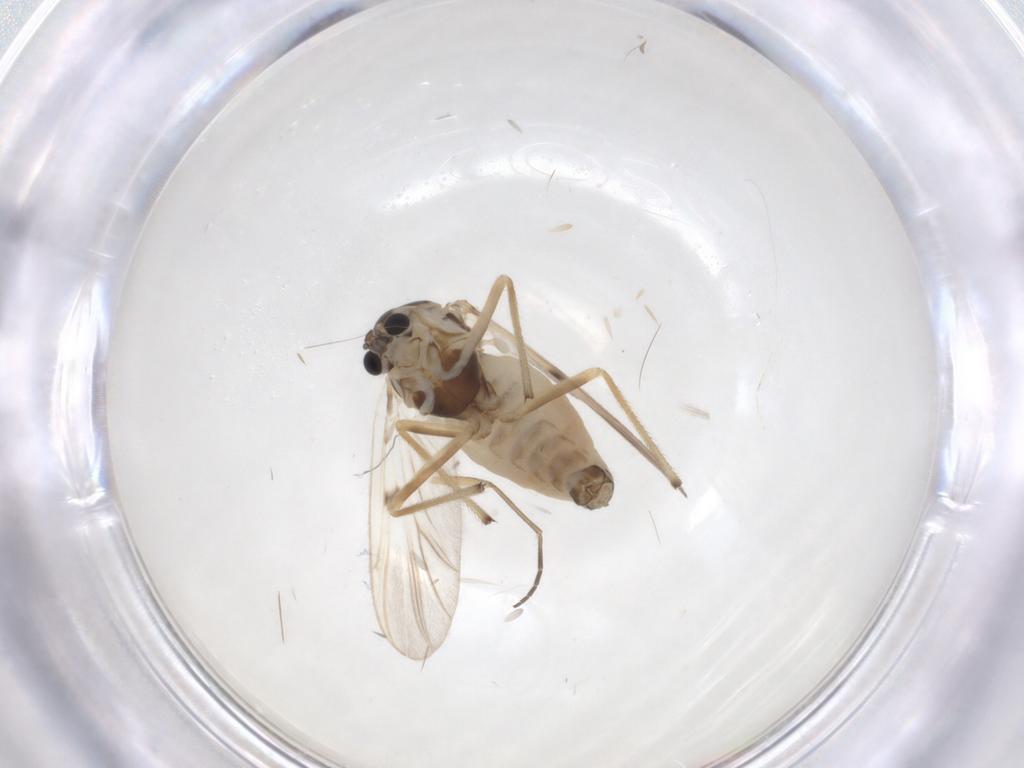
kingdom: Animalia
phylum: Arthropoda
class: Insecta
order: Diptera
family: Chironomidae
